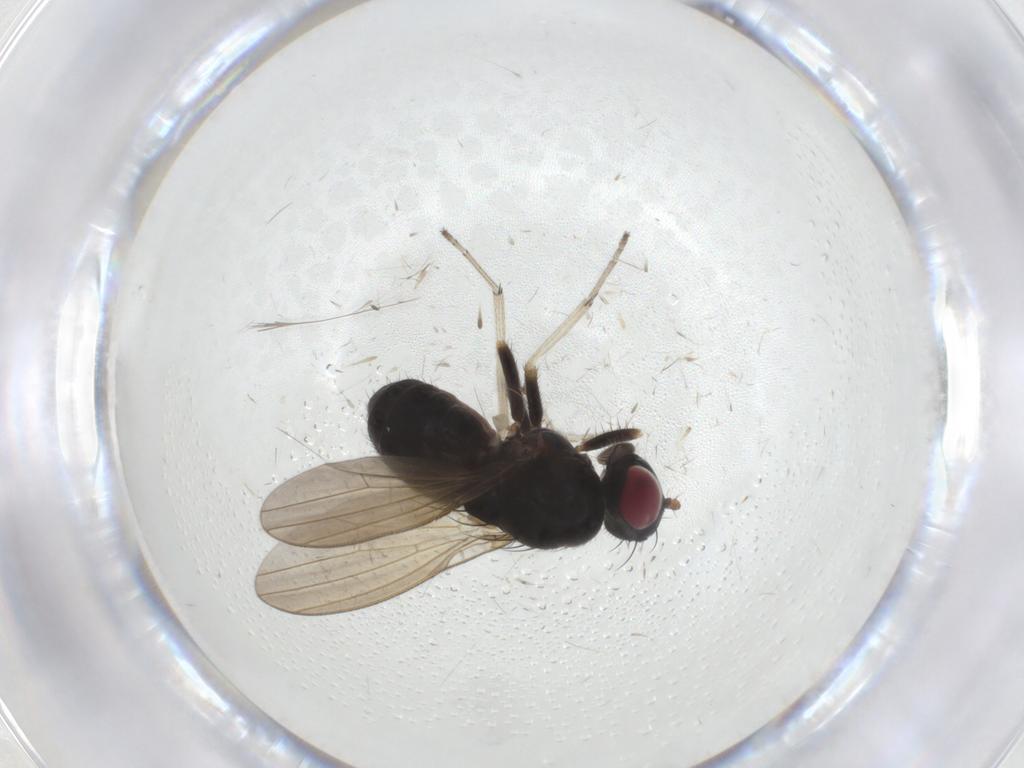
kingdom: Animalia
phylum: Arthropoda
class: Insecta
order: Diptera
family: Lauxaniidae
